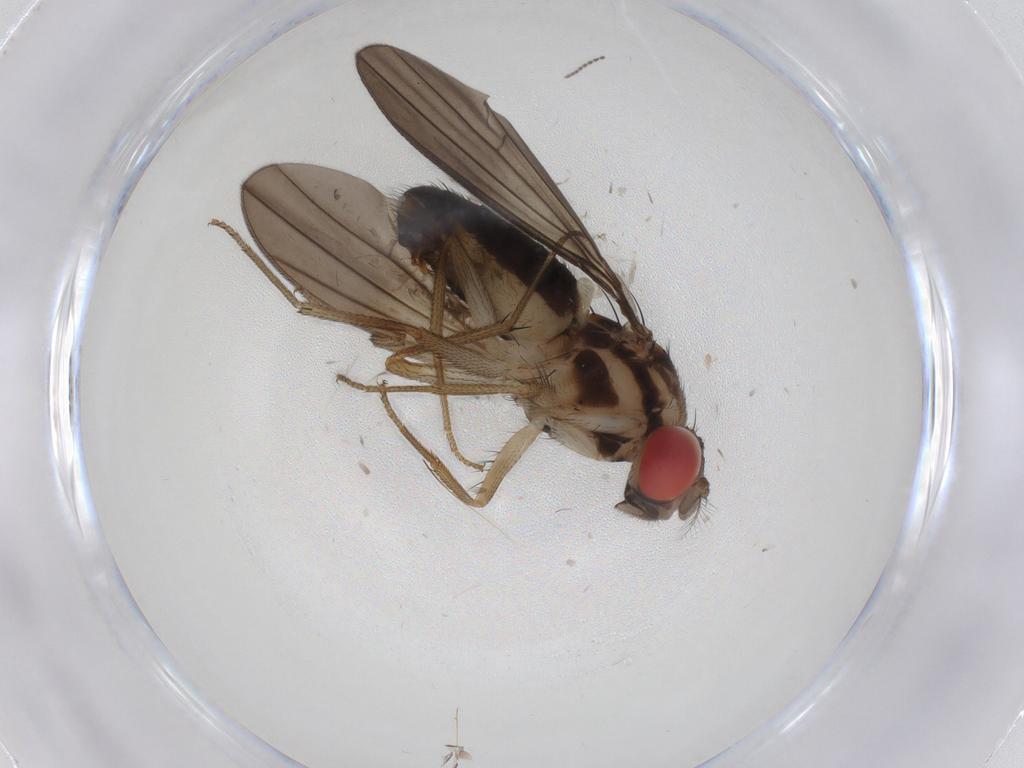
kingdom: Animalia
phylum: Arthropoda
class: Insecta
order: Diptera
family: Drosophilidae
